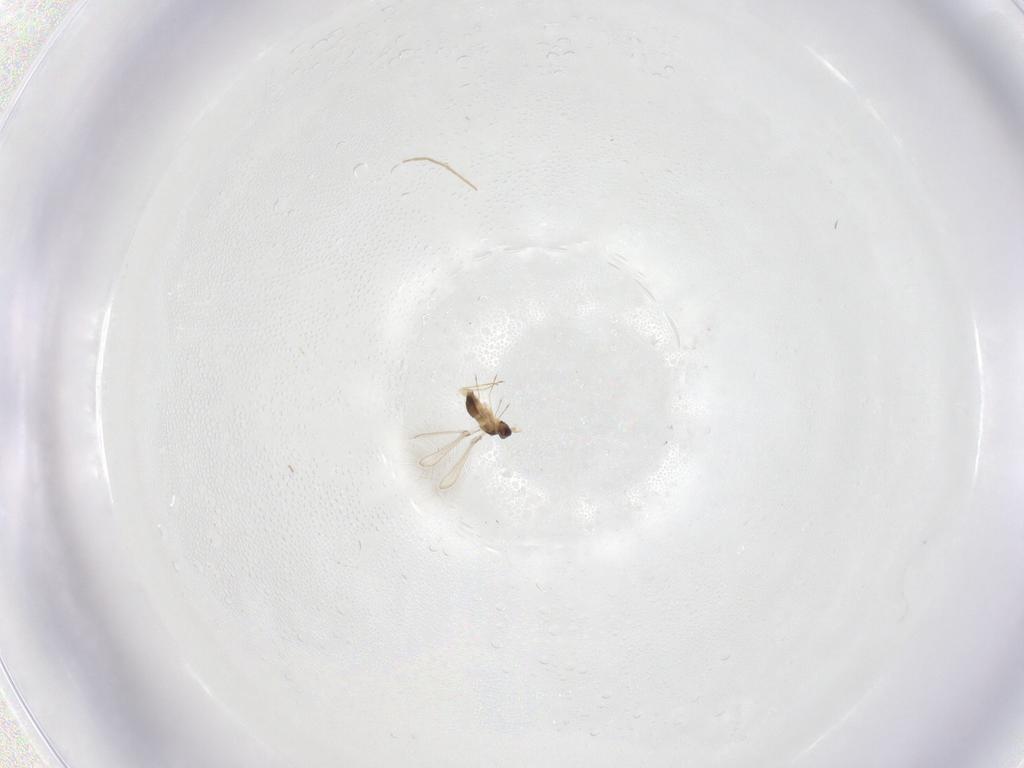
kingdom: Animalia
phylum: Arthropoda
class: Insecta
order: Hymenoptera
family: Mymaridae
